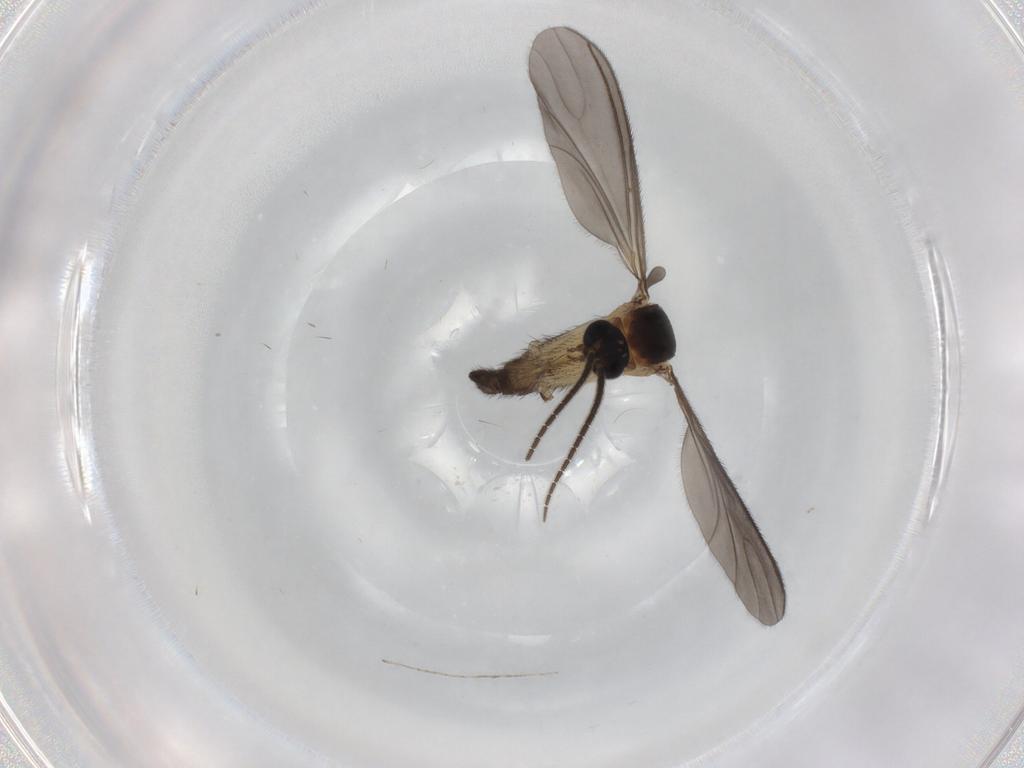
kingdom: Animalia
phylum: Arthropoda
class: Insecta
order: Diptera
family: Sciaridae
